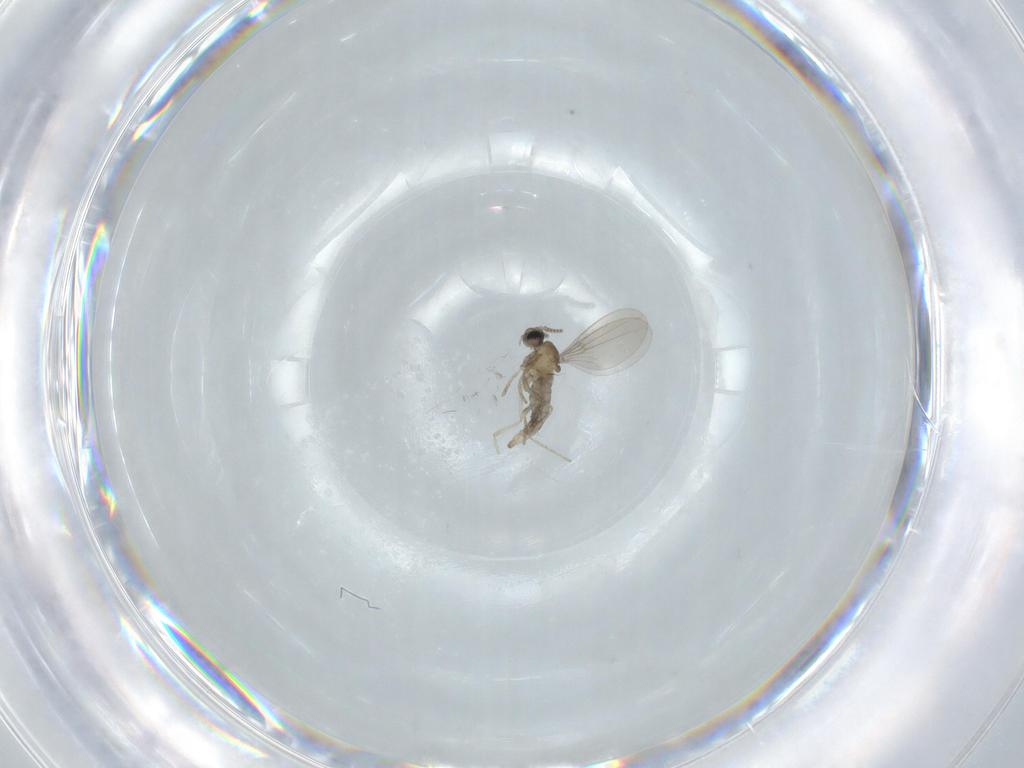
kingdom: Animalia
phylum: Arthropoda
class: Insecta
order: Diptera
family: Cecidomyiidae
